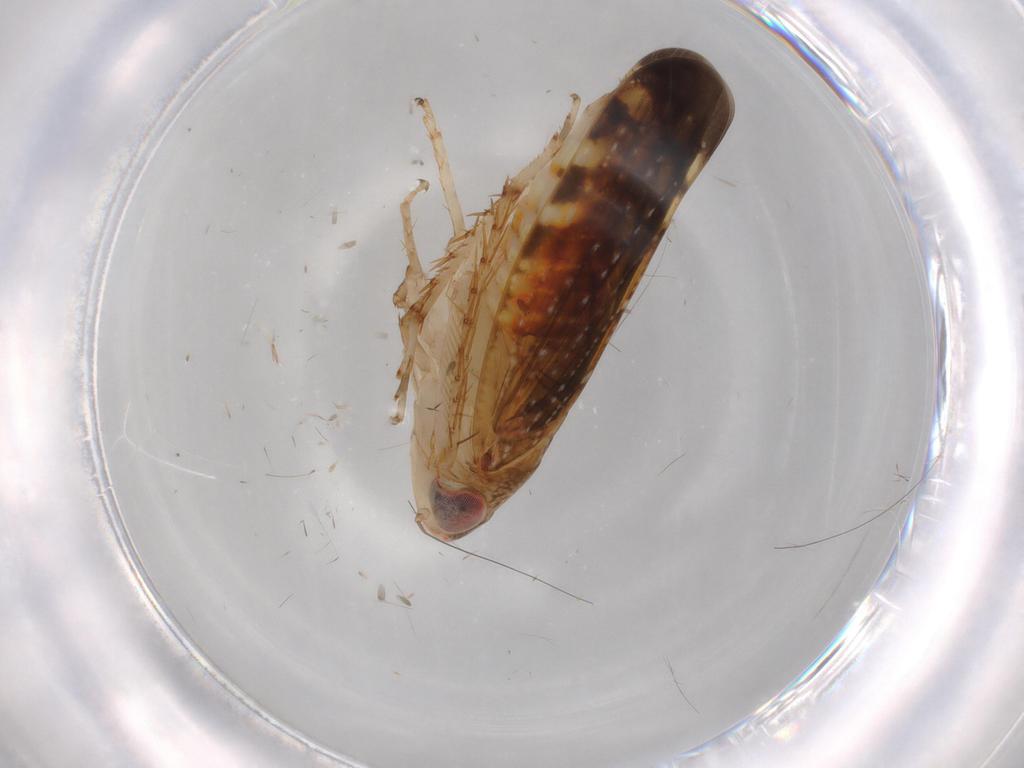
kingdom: Animalia
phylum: Arthropoda
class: Insecta
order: Hemiptera
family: Cicadellidae
